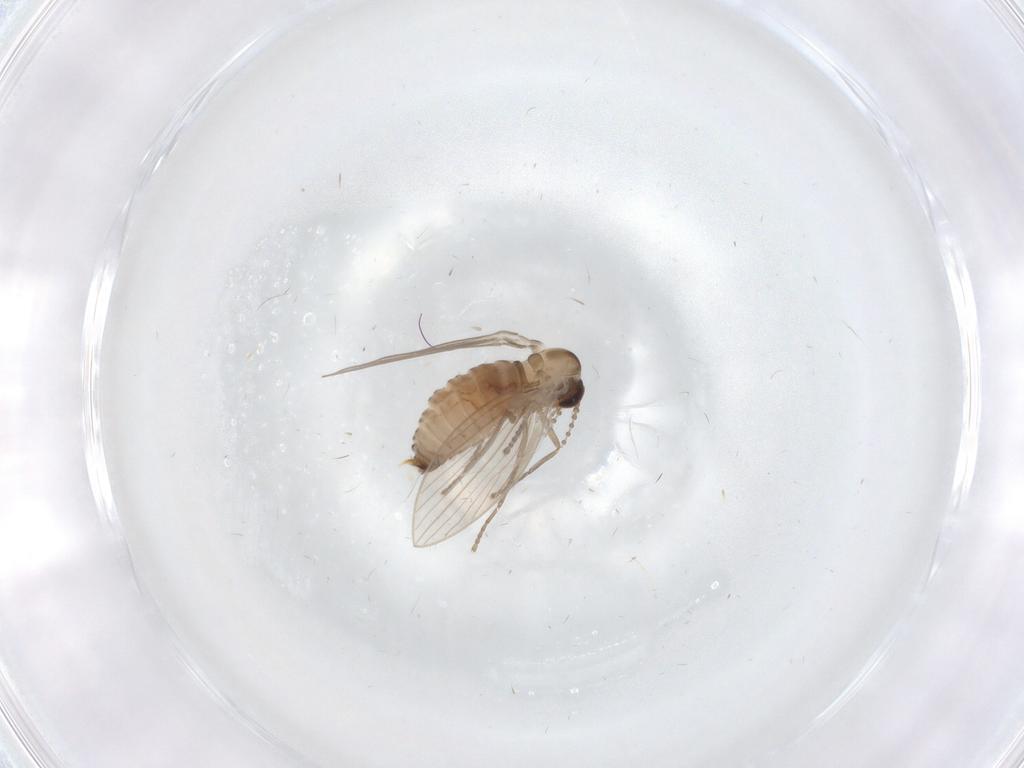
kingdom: Animalia
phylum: Arthropoda
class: Insecta
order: Diptera
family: Psychodidae
